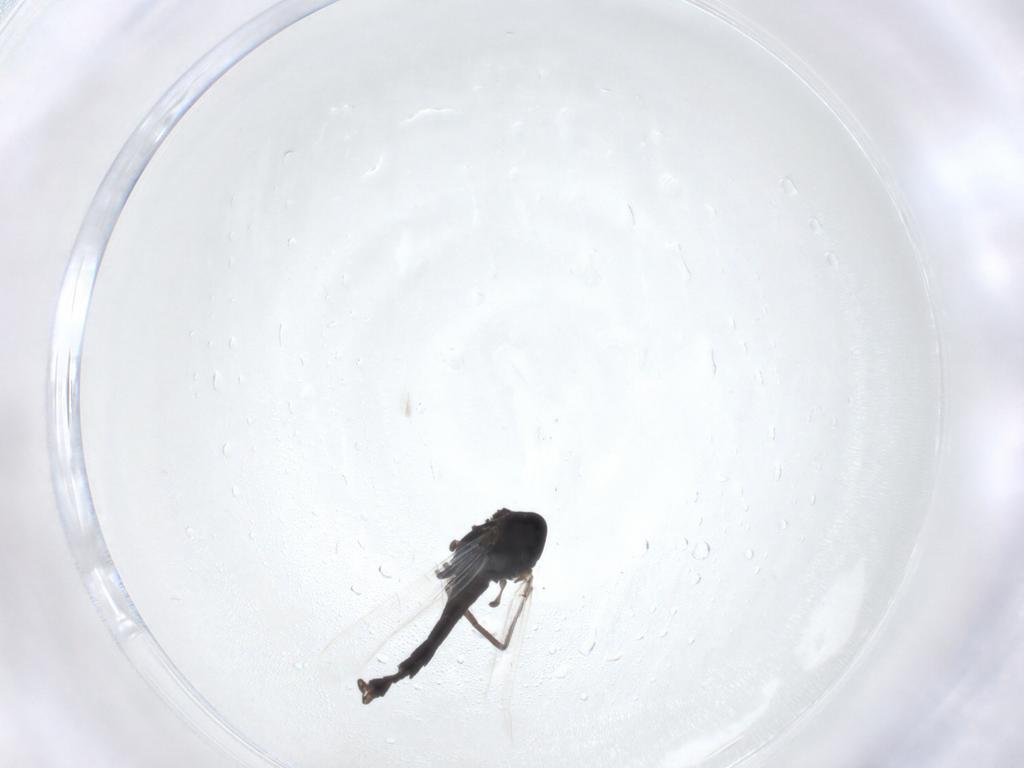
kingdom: Animalia
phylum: Arthropoda
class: Insecta
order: Diptera
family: Chironomidae
